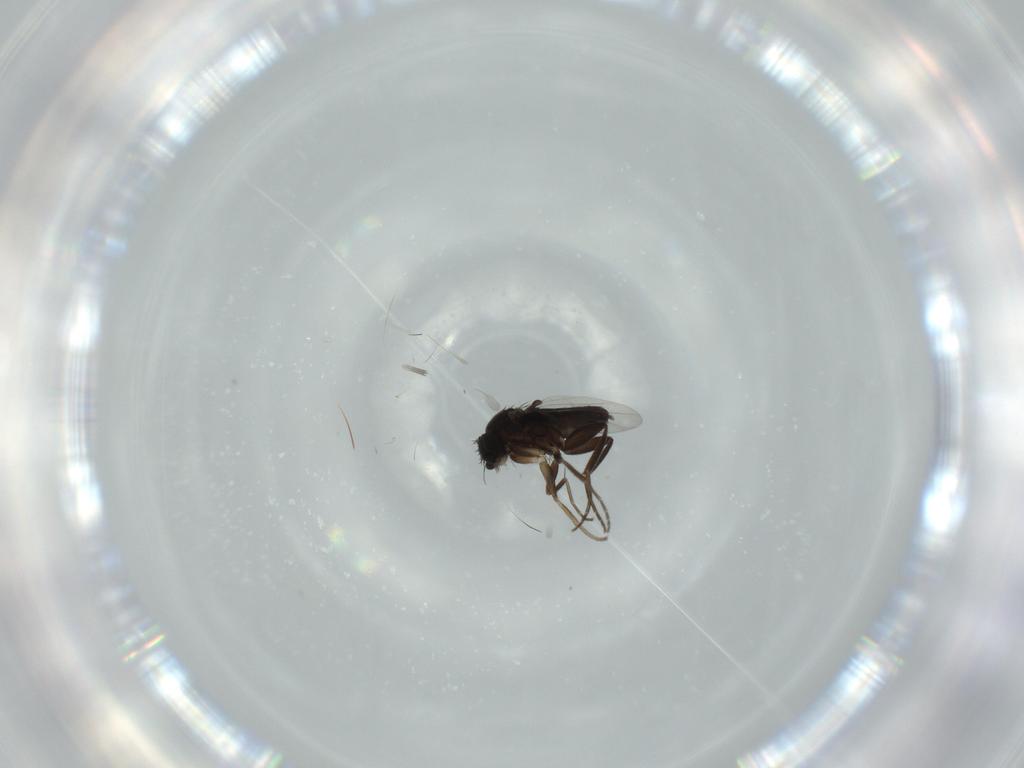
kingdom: Animalia
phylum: Arthropoda
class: Insecta
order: Diptera
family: Phoridae
